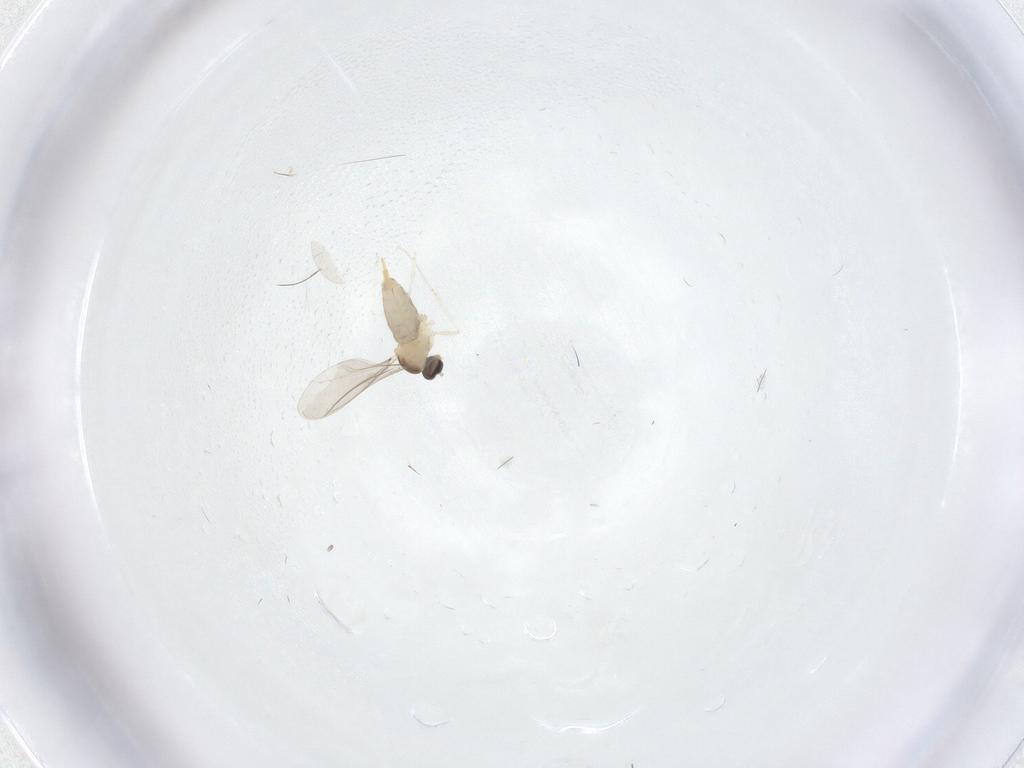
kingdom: Animalia
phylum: Arthropoda
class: Insecta
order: Diptera
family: Cecidomyiidae
